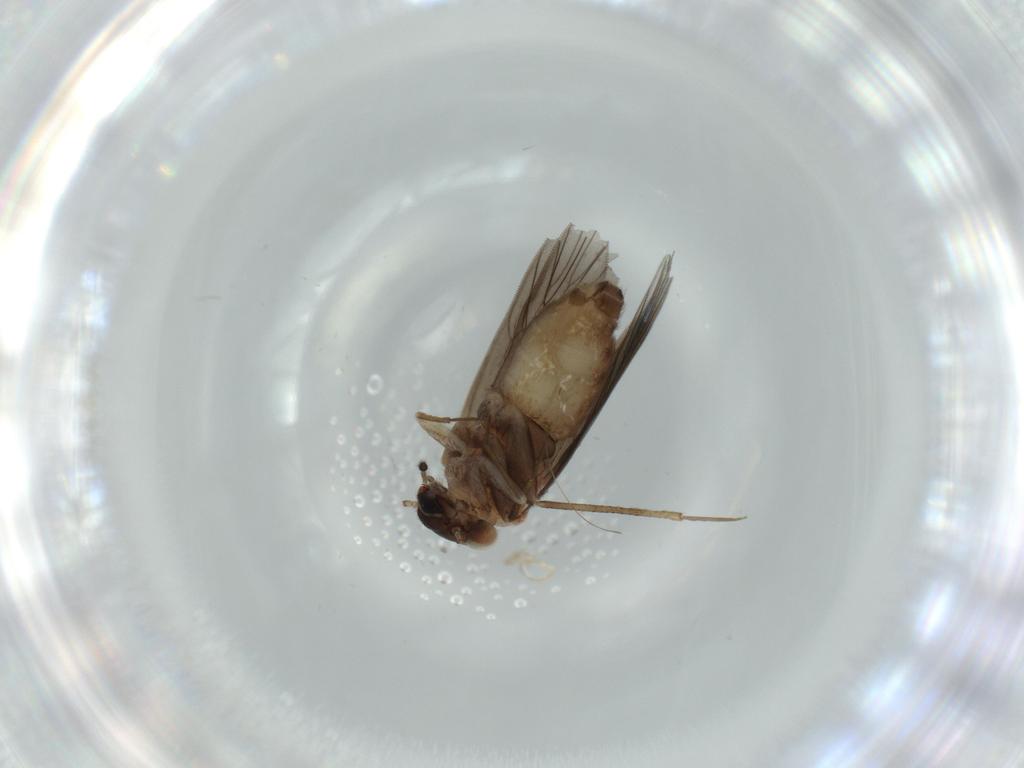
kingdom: Animalia
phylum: Arthropoda
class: Insecta
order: Psocodea
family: Lepidopsocidae
